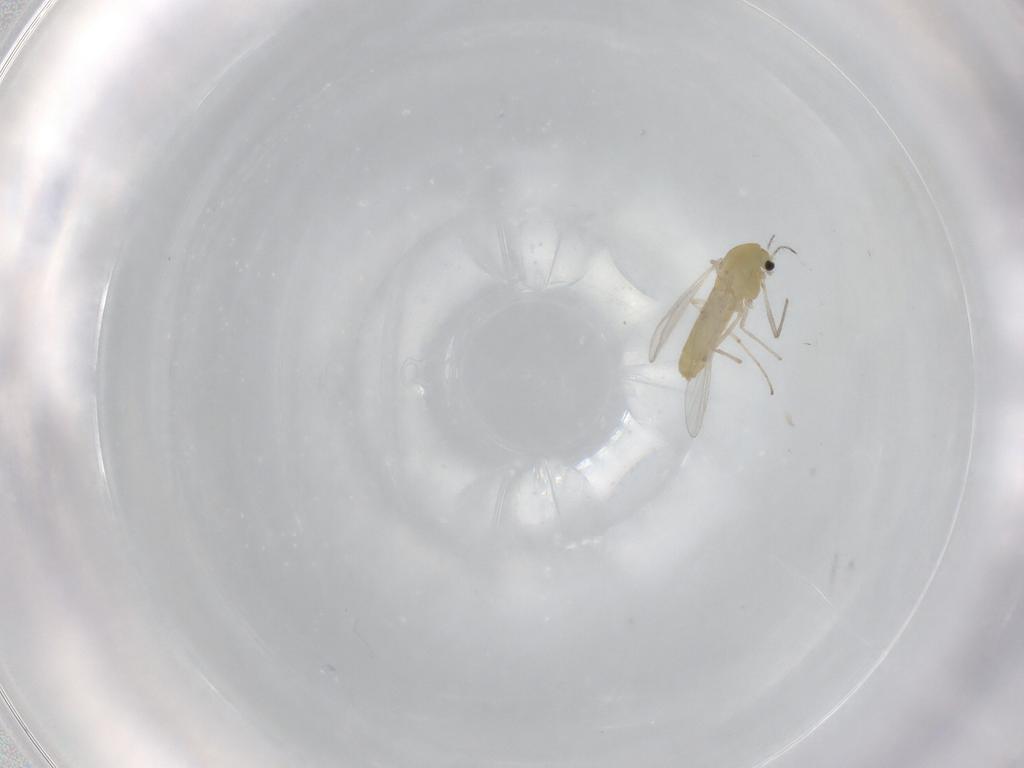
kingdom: Animalia
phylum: Arthropoda
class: Insecta
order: Diptera
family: Chironomidae
